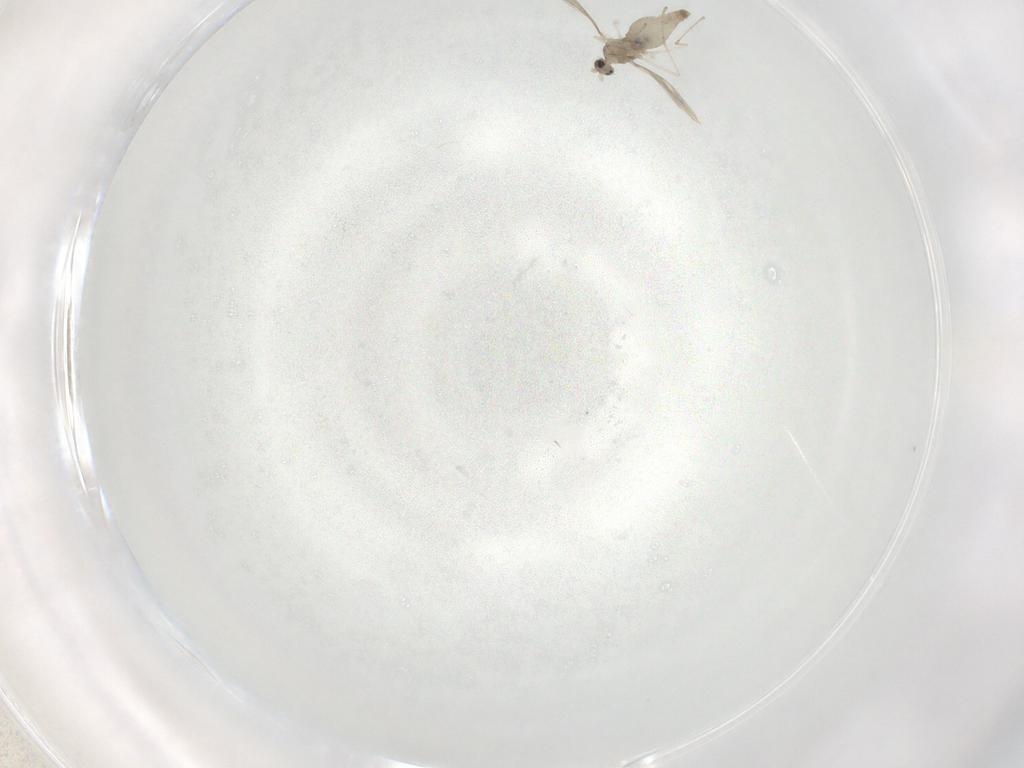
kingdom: Animalia
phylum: Arthropoda
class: Insecta
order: Diptera
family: Cecidomyiidae
